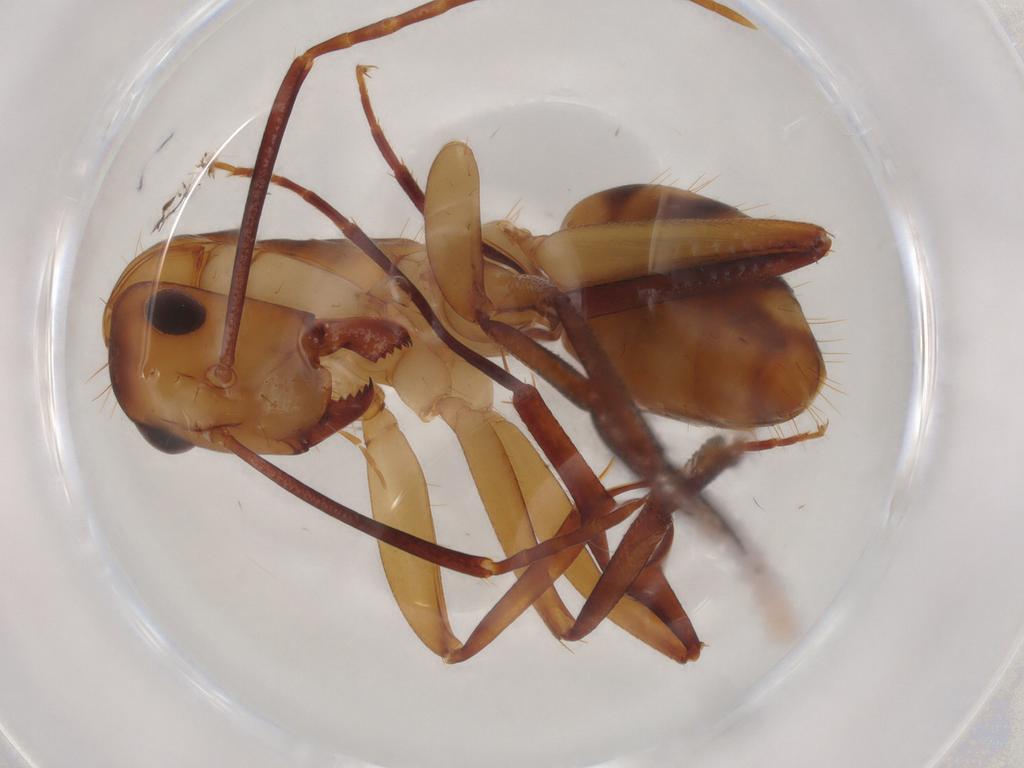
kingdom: Animalia
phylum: Arthropoda
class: Insecta
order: Hymenoptera
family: Formicidae
